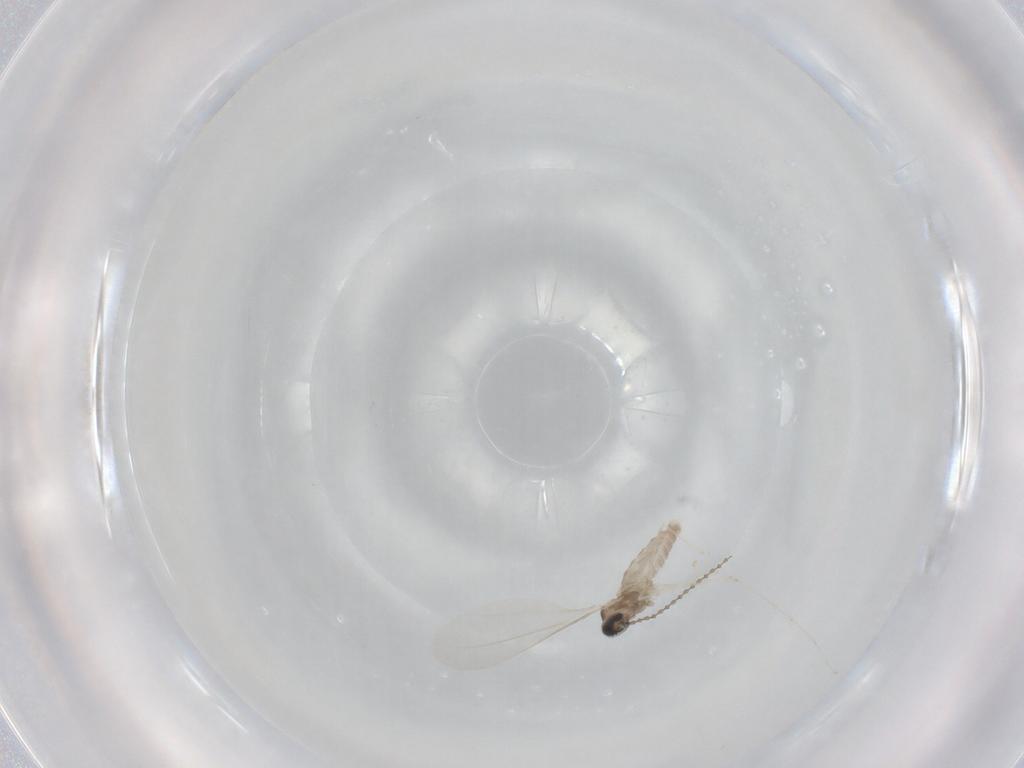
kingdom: Animalia
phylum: Arthropoda
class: Insecta
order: Diptera
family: Cecidomyiidae
